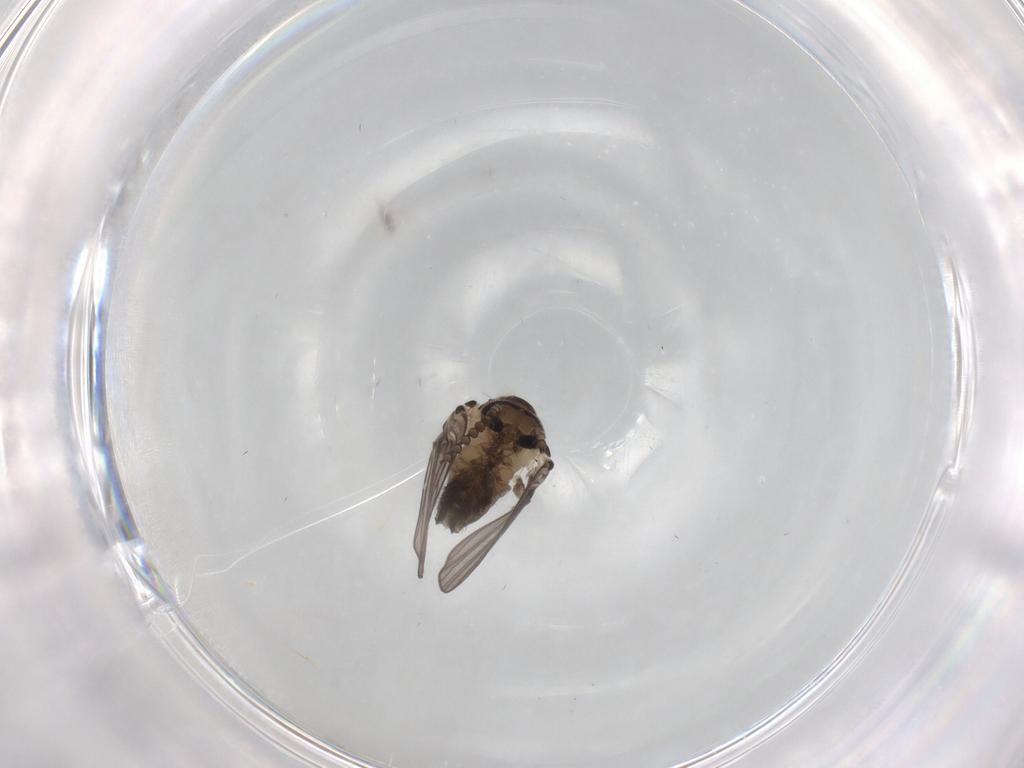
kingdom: Animalia
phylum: Arthropoda
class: Insecta
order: Diptera
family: Psychodidae
